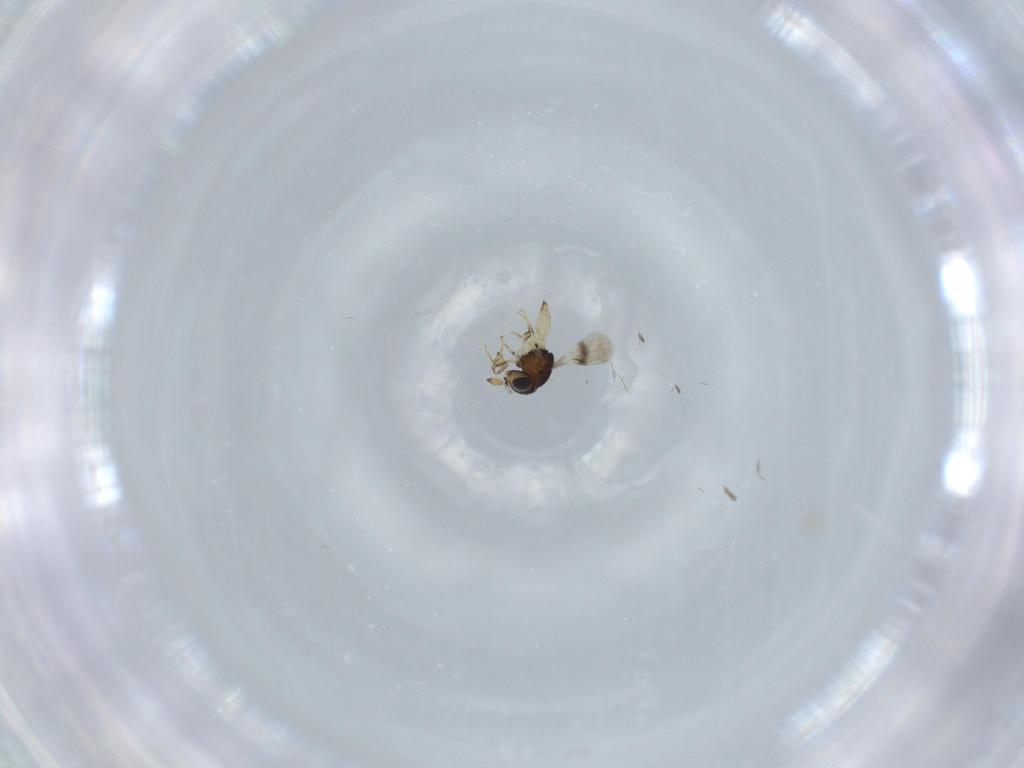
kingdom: Animalia
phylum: Arthropoda
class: Insecta
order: Hymenoptera
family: Scelionidae
